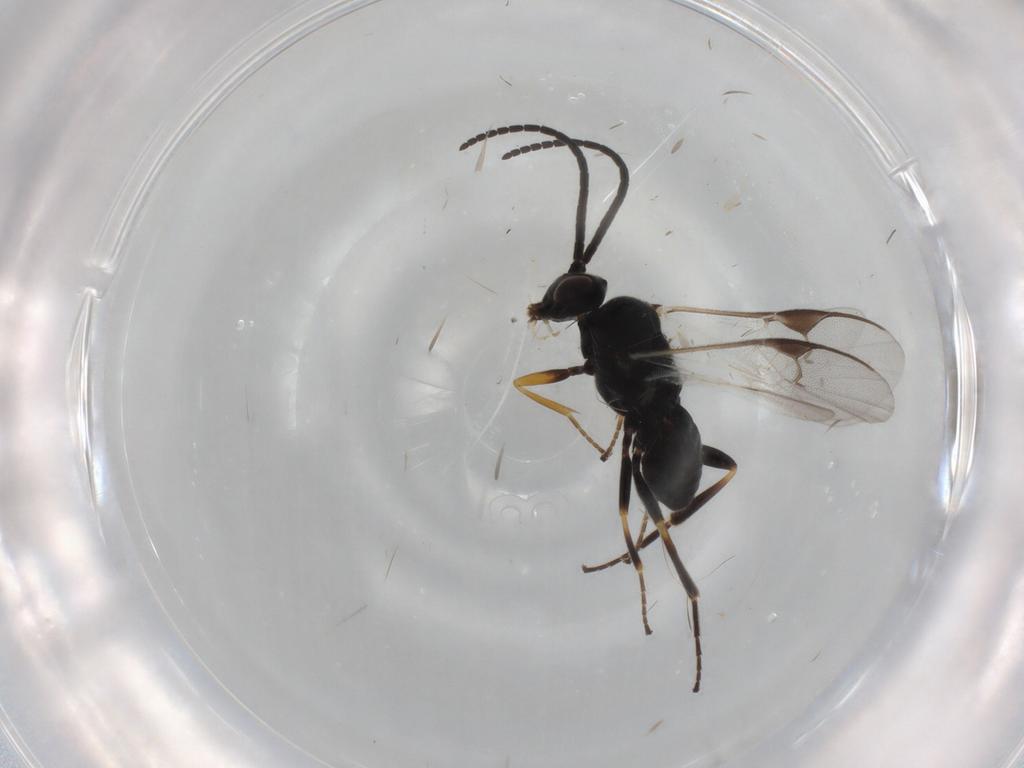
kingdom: Animalia
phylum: Arthropoda
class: Insecta
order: Hymenoptera
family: Braconidae
